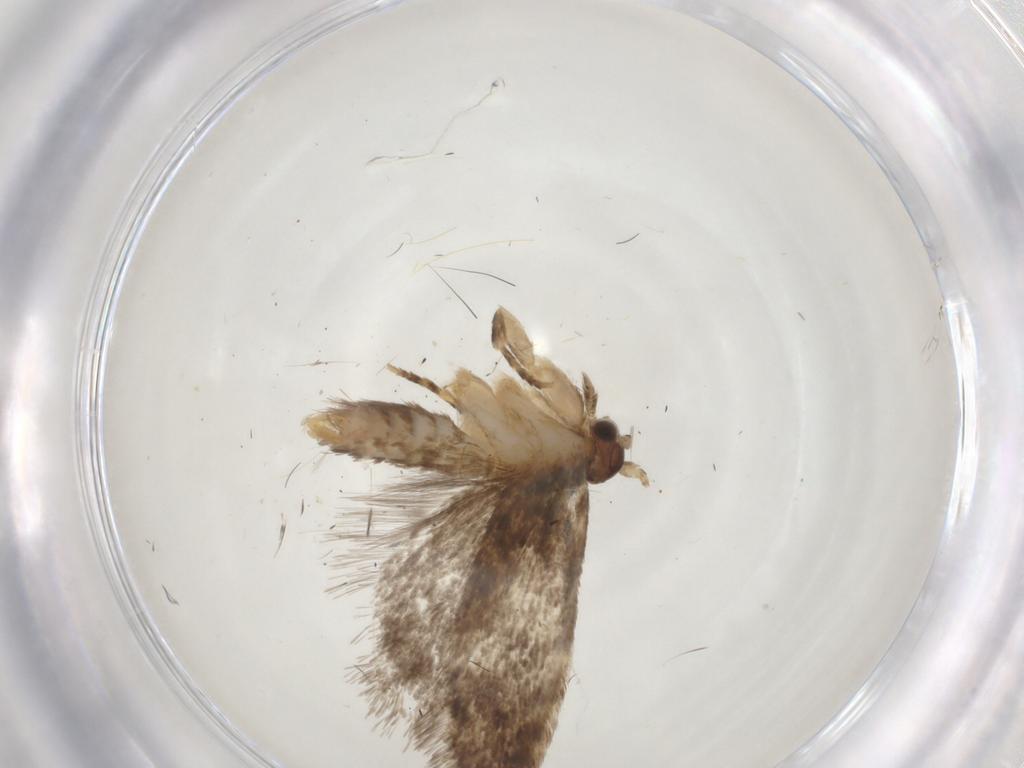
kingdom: Animalia
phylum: Arthropoda
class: Insecta
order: Lepidoptera
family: Dryadaulidae
